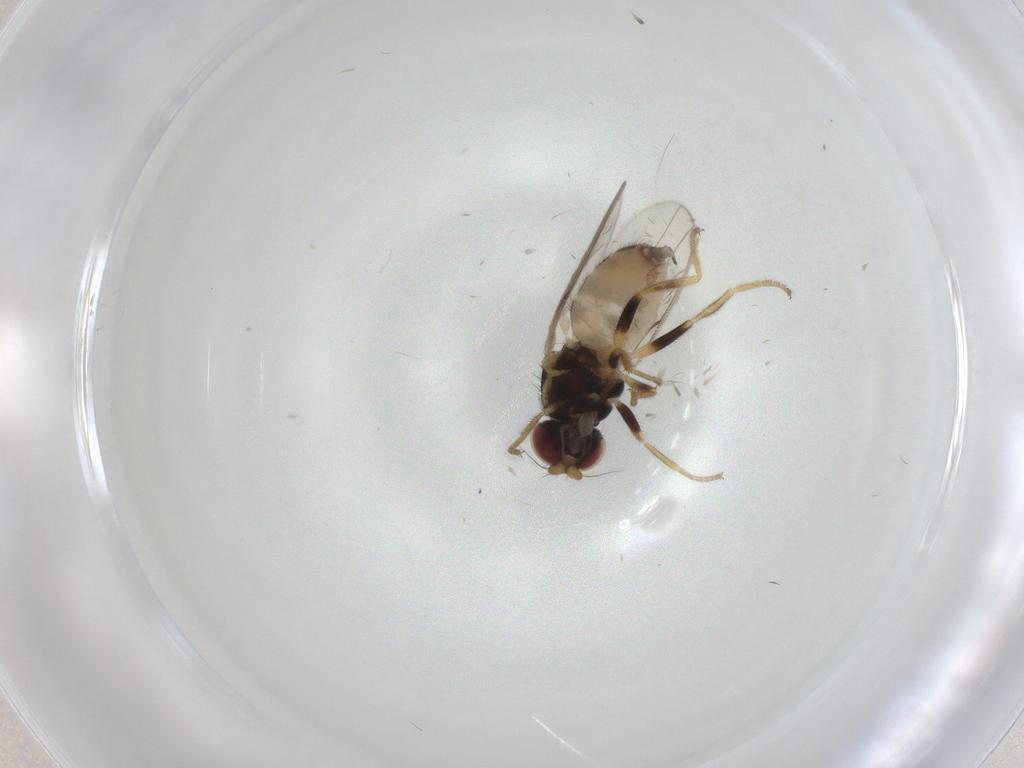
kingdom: Animalia
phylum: Arthropoda
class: Insecta
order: Diptera
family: Chloropidae
